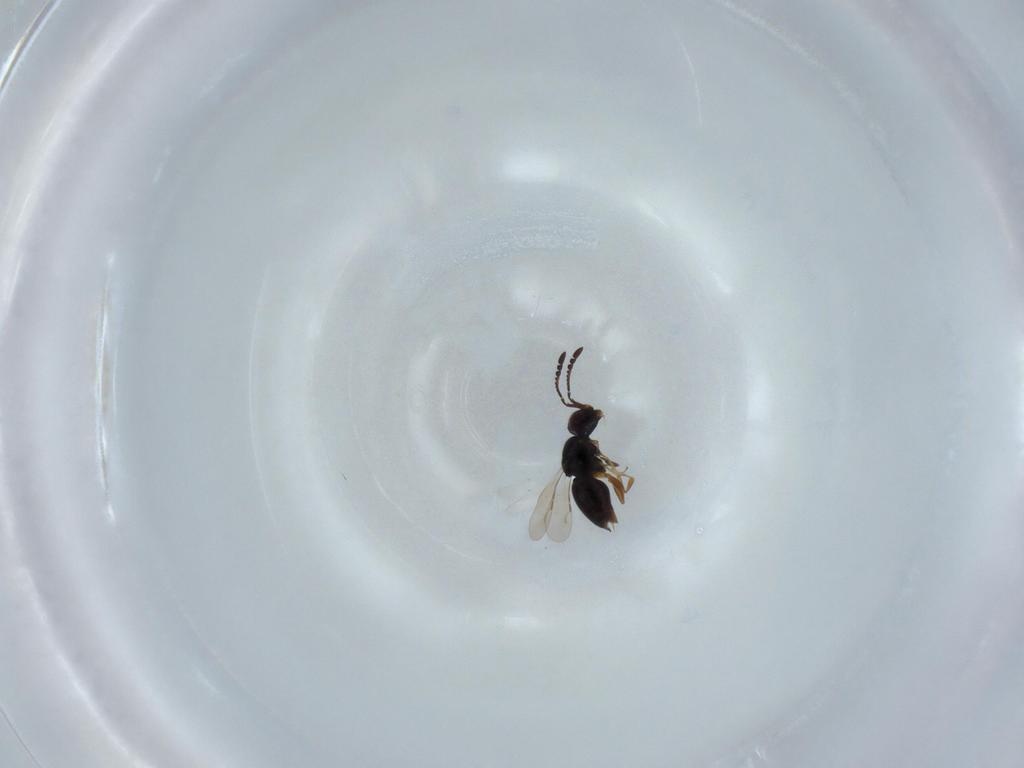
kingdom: Animalia
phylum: Arthropoda
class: Insecta
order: Hymenoptera
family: Ceraphronidae
